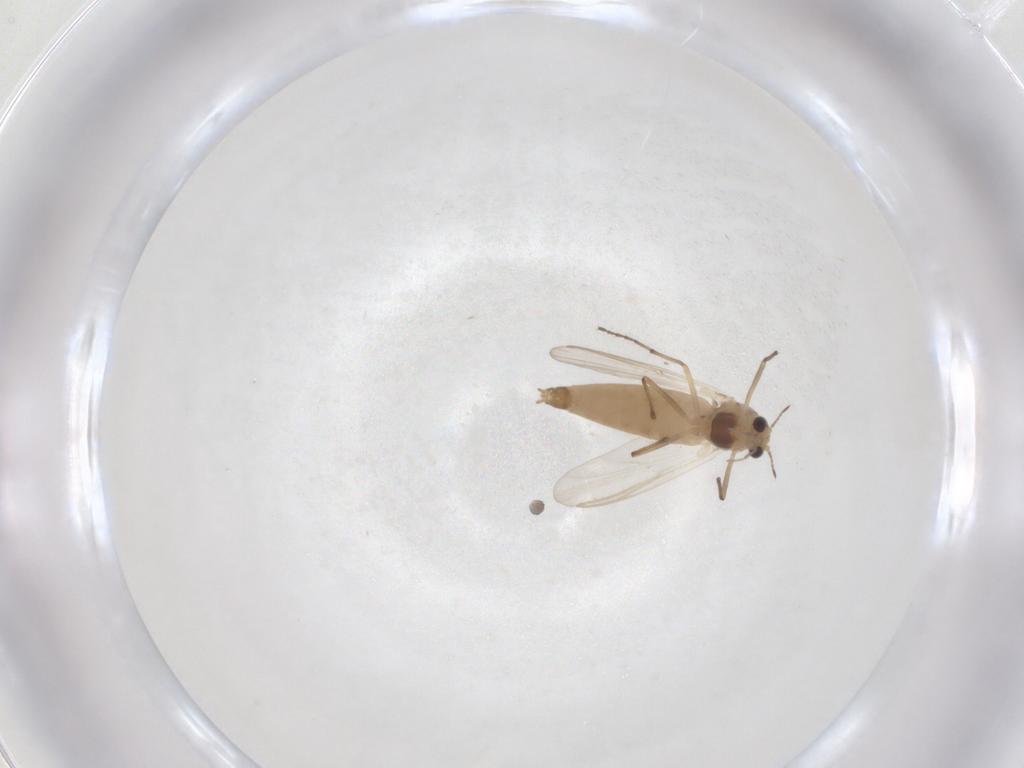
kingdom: Animalia
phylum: Arthropoda
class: Insecta
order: Diptera
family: Chironomidae
